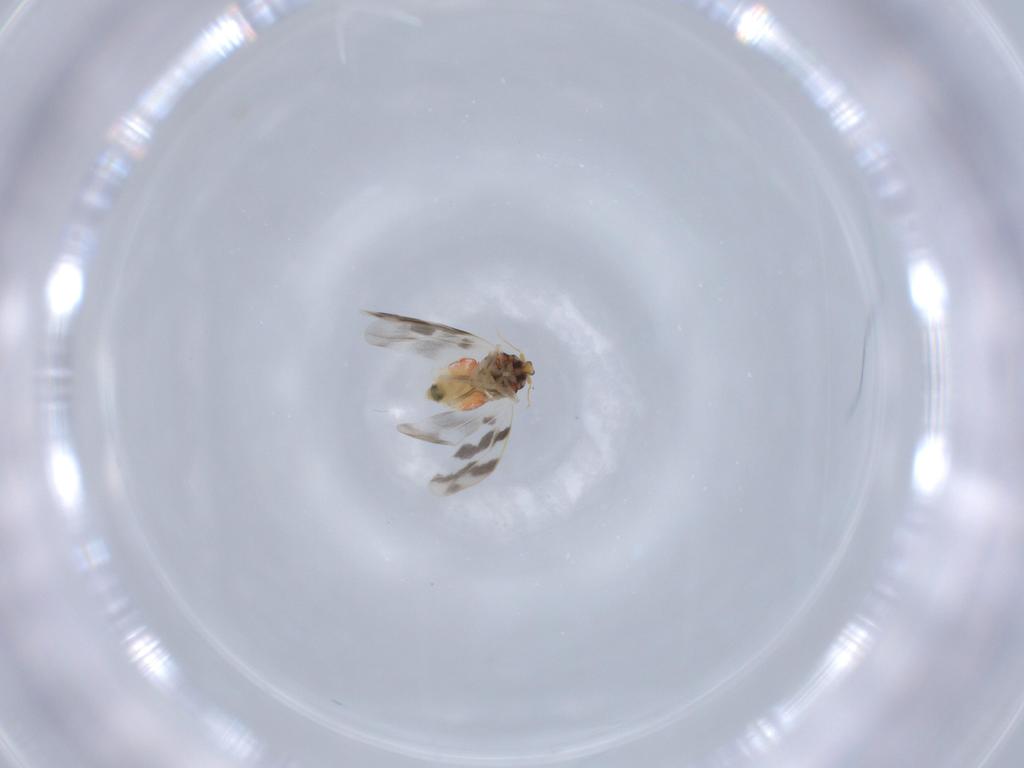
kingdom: Animalia
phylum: Arthropoda
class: Insecta
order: Hemiptera
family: Aleyrodidae
